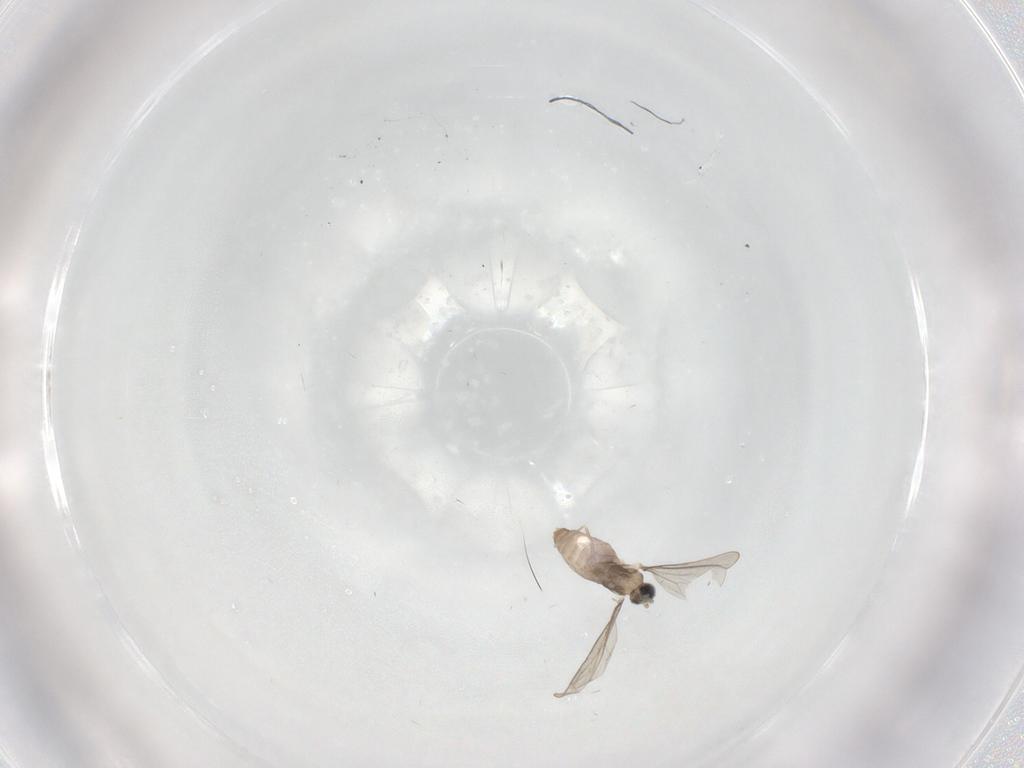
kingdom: Animalia
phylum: Arthropoda
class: Insecta
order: Diptera
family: Cecidomyiidae
